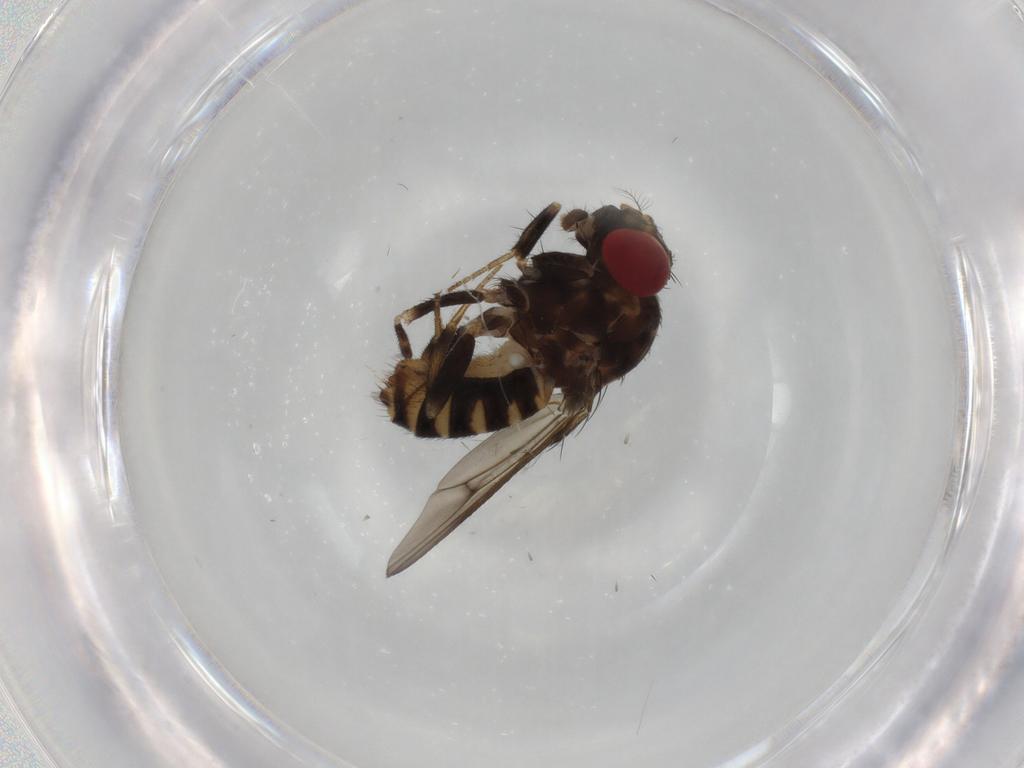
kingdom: Animalia
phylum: Arthropoda
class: Insecta
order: Diptera
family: Drosophilidae
